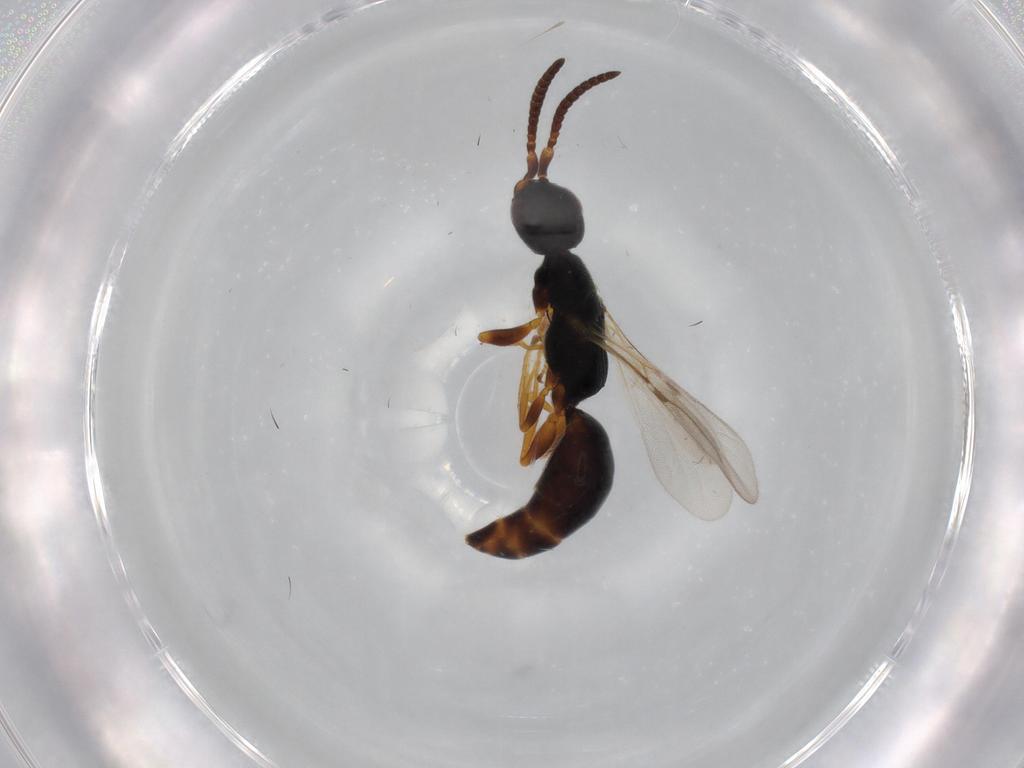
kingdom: Animalia
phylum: Arthropoda
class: Insecta
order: Hymenoptera
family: Bethylidae
